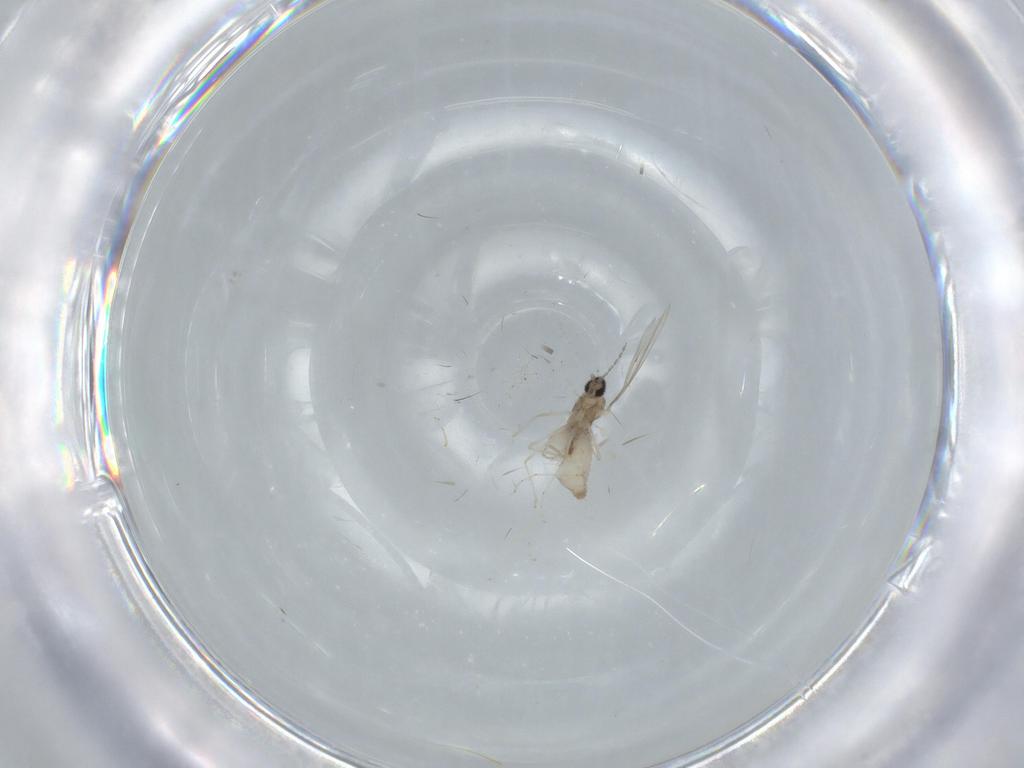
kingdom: Animalia
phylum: Arthropoda
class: Insecta
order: Diptera
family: Cecidomyiidae
